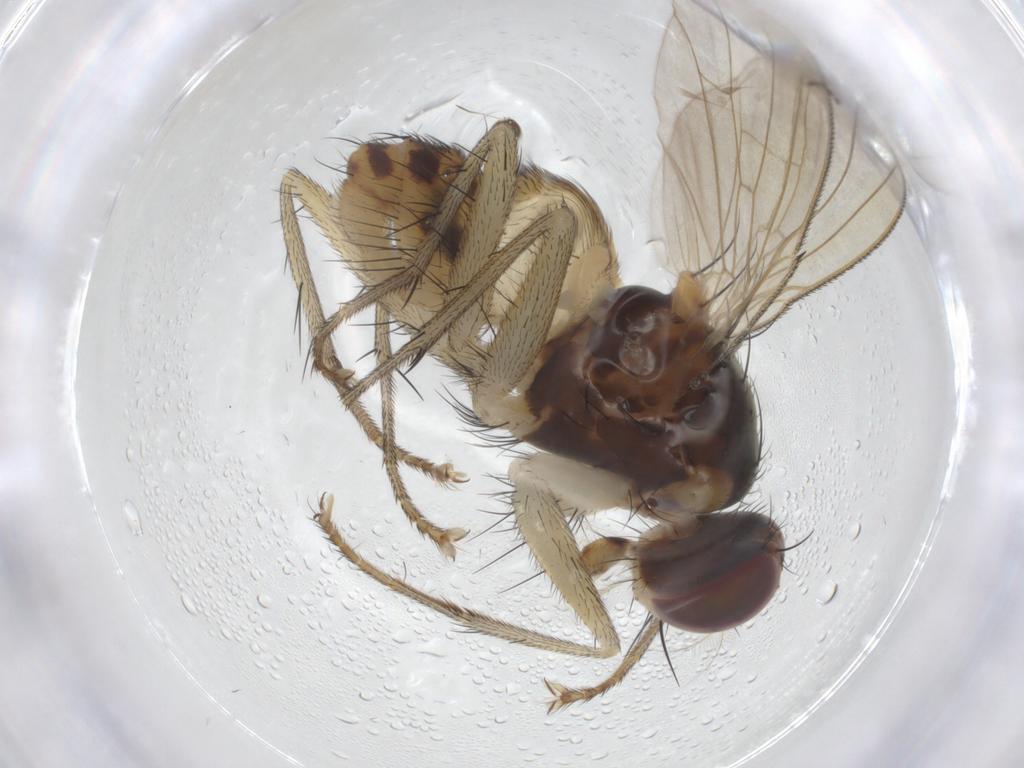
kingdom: Animalia
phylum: Arthropoda
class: Insecta
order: Diptera
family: Muscidae
